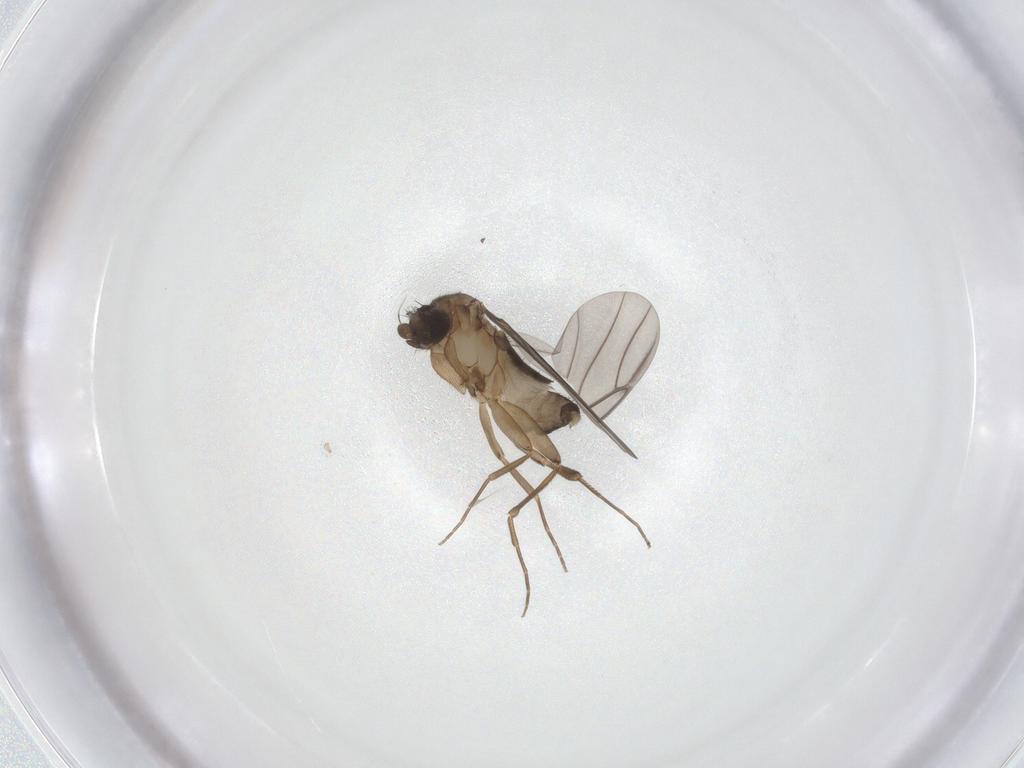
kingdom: Animalia
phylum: Arthropoda
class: Insecta
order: Diptera
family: Phoridae
